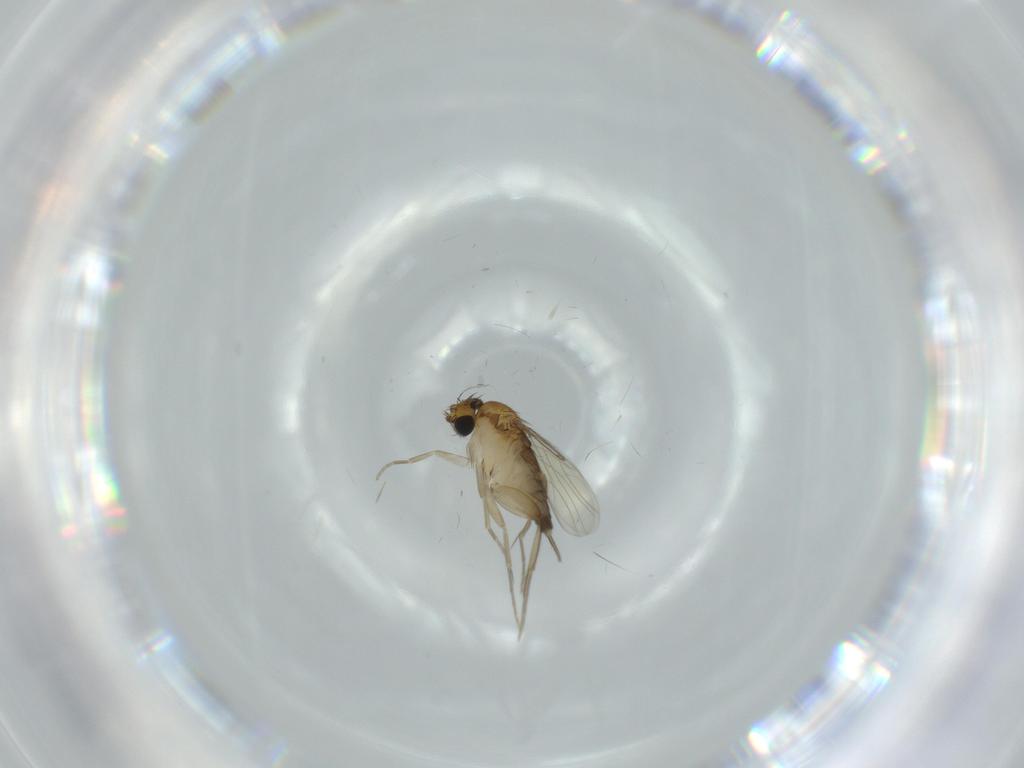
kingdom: Animalia
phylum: Arthropoda
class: Insecta
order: Diptera
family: Phoridae
